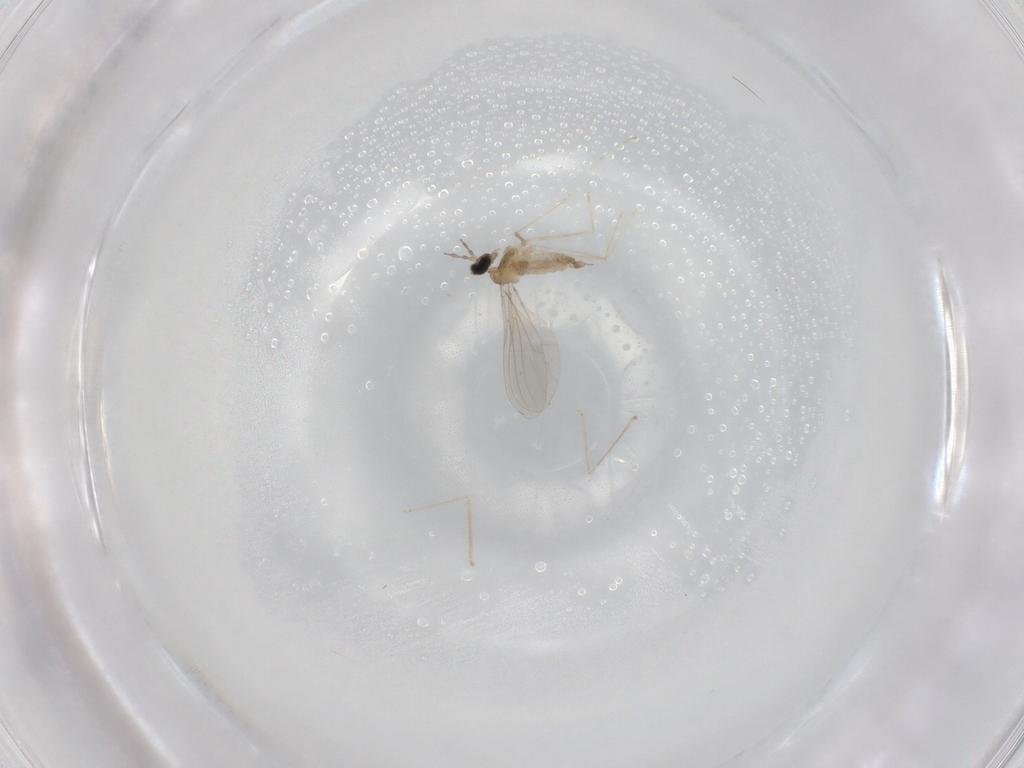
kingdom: Animalia
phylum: Arthropoda
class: Insecta
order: Diptera
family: Cecidomyiidae
